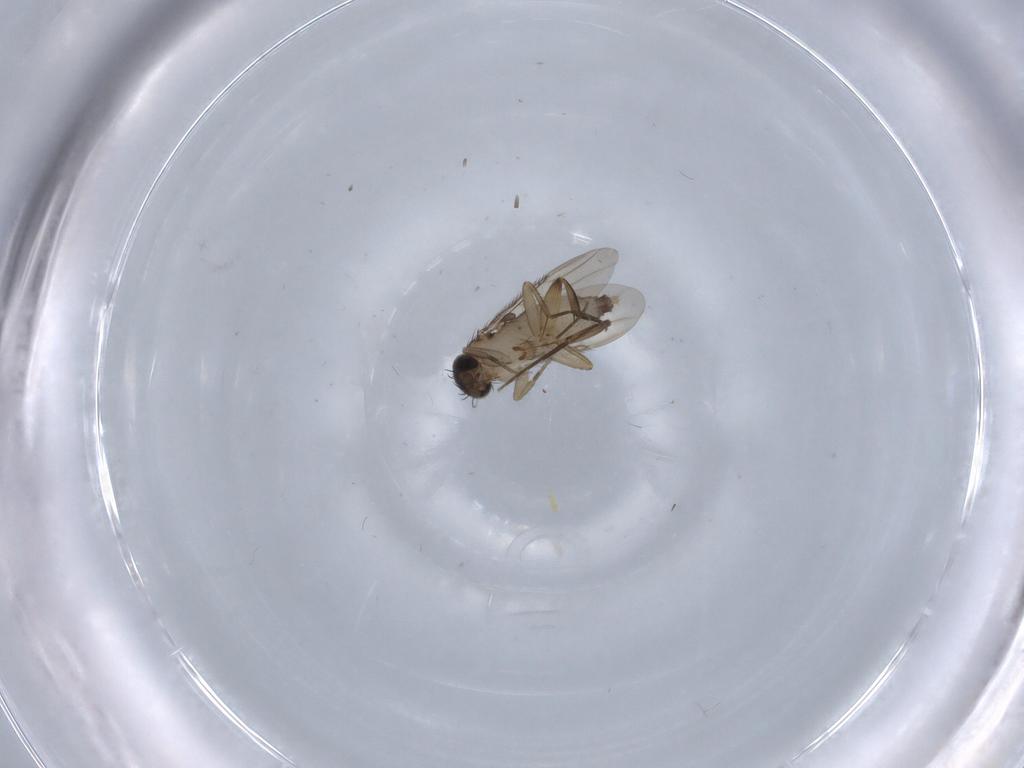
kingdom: Animalia
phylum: Arthropoda
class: Insecta
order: Diptera
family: Phoridae
